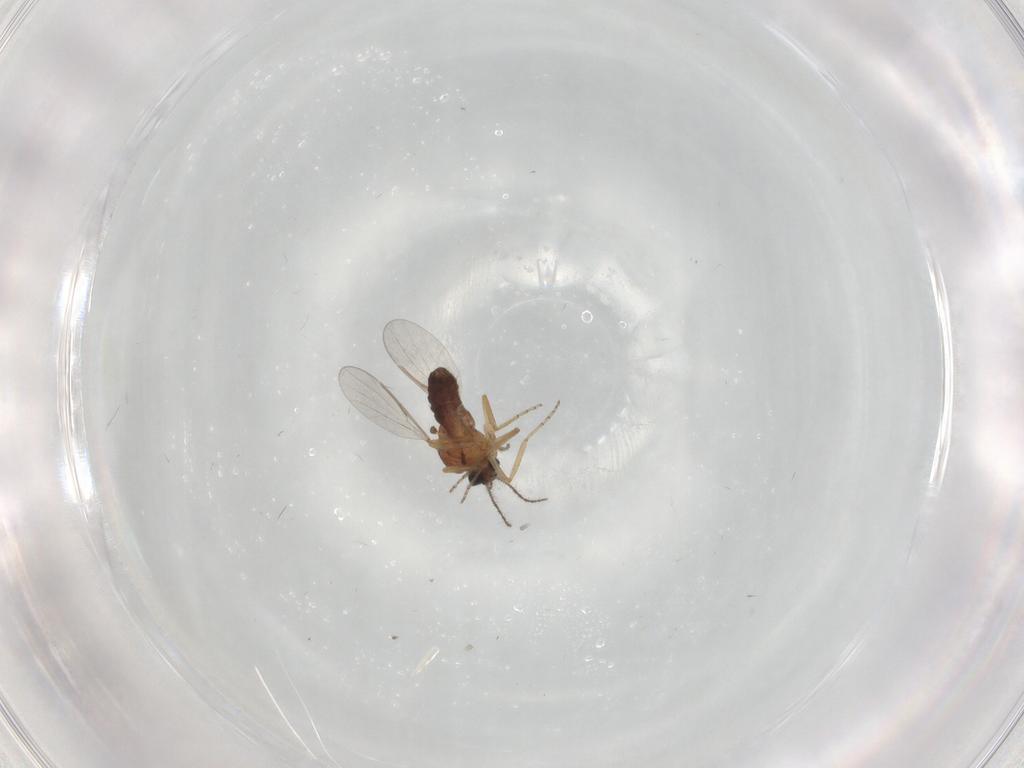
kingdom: Animalia
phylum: Arthropoda
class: Insecta
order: Diptera
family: Ceratopogonidae
